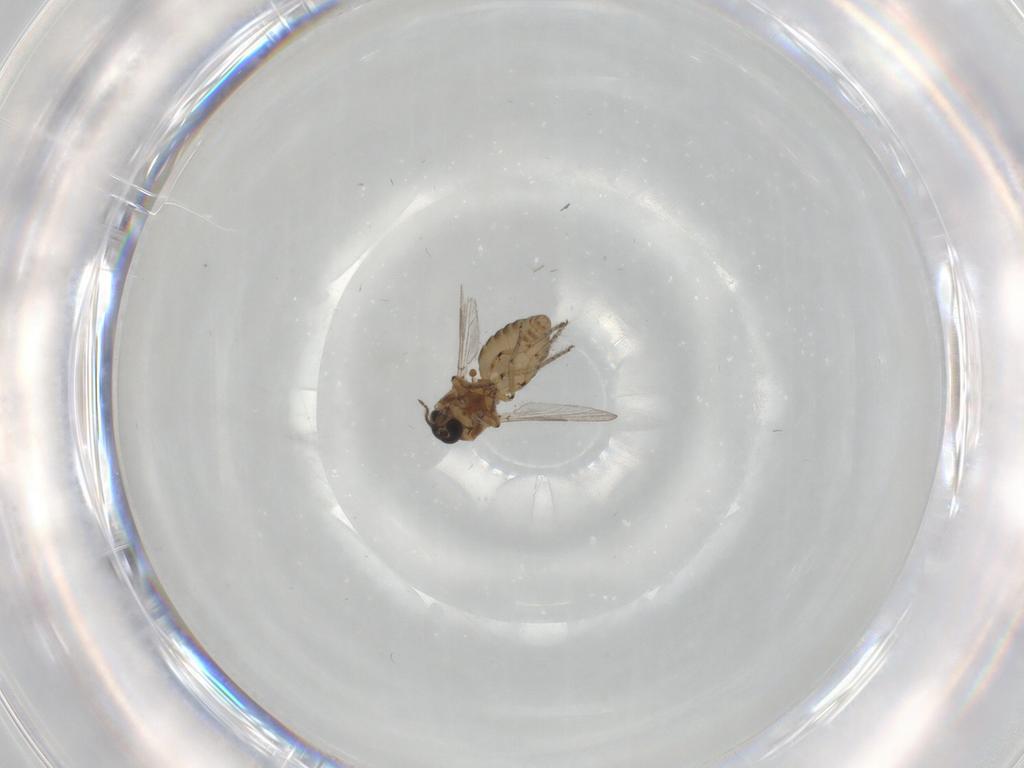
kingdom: Animalia
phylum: Arthropoda
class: Insecta
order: Diptera
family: Ceratopogonidae
